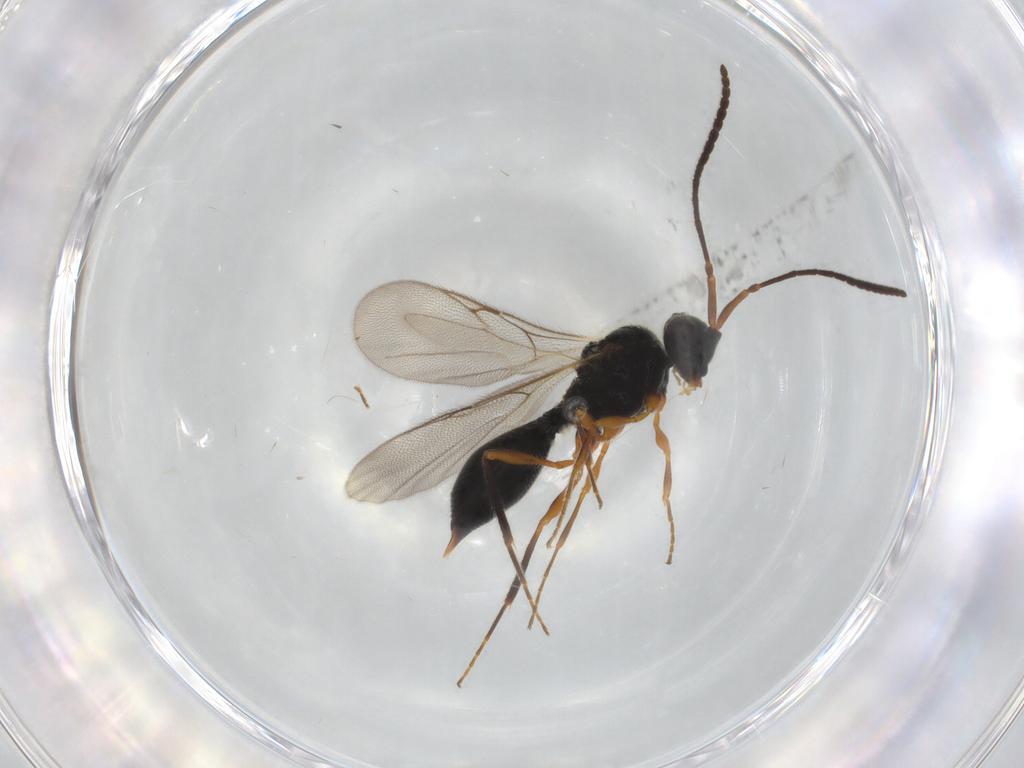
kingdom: Animalia
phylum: Arthropoda
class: Insecta
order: Hymenoptera
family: Diapriidae
